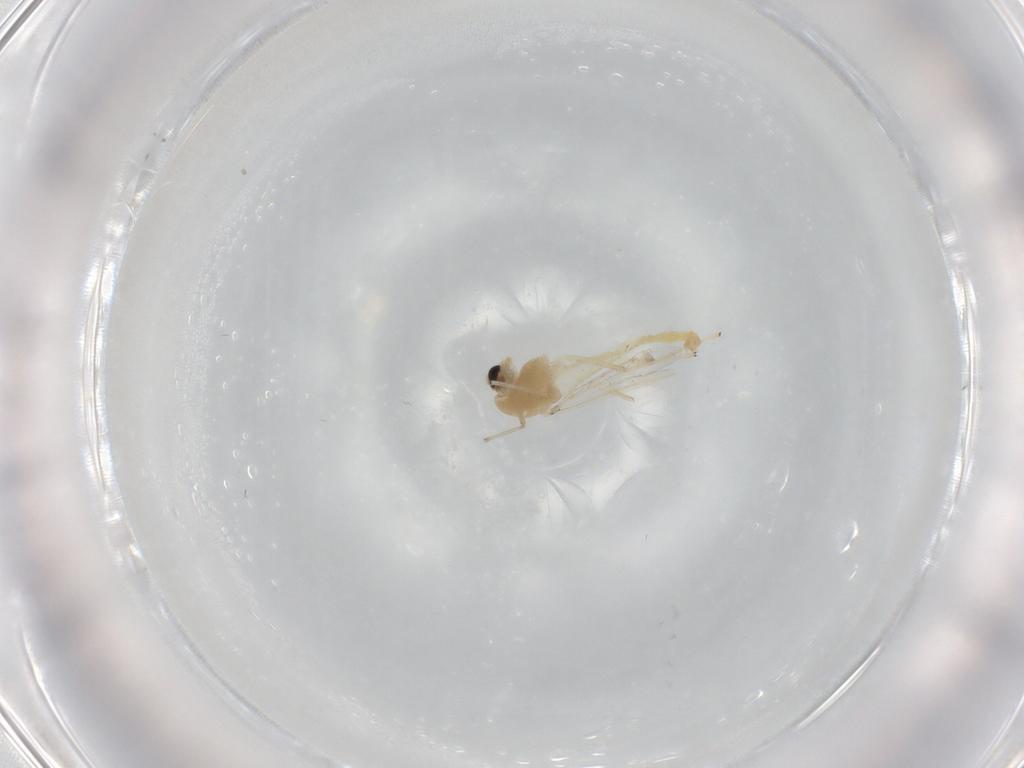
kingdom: Animalia
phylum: Arthropoda
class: Insecta
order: Diptera
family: Chironomidae
